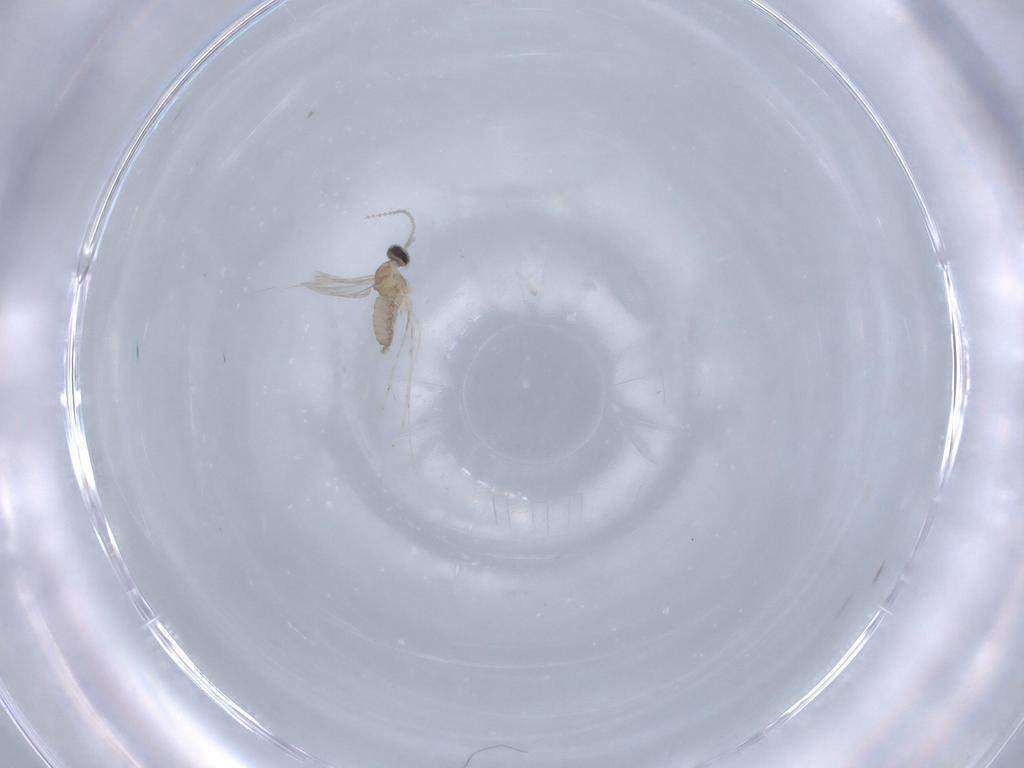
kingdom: Animalia
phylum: Arthropoda
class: Insecta
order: Diptera
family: Cecidomyiidae
